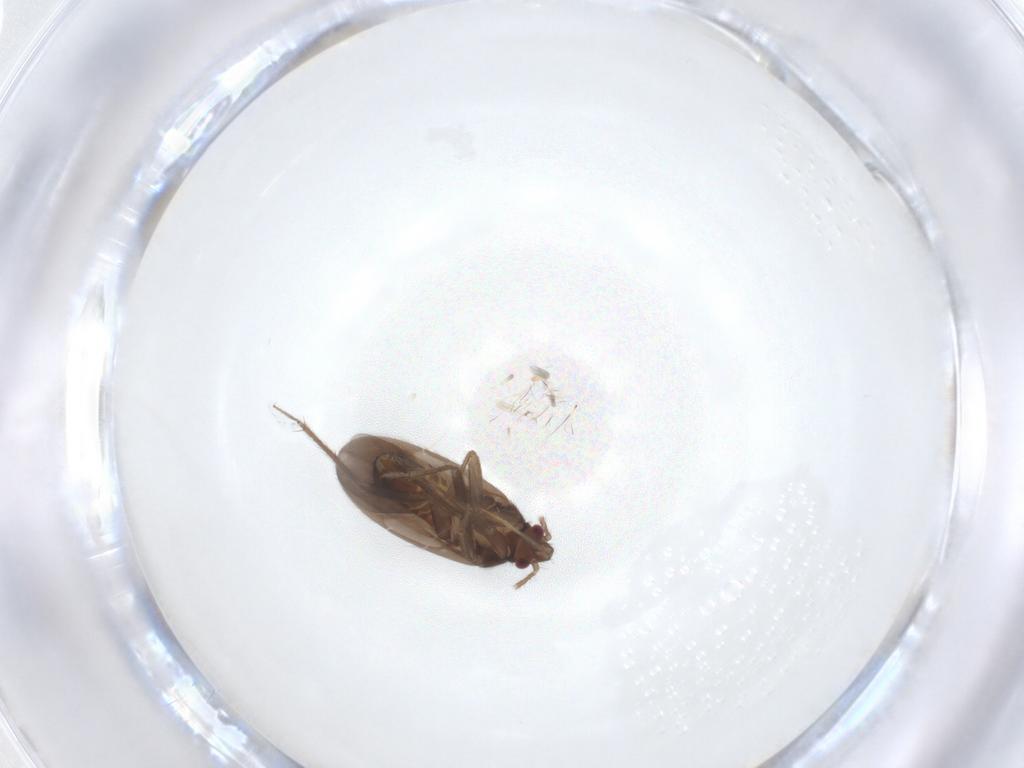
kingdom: Animalia
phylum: Arthropoda
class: Insecta
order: Hemiptera
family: Ceratocombidae
